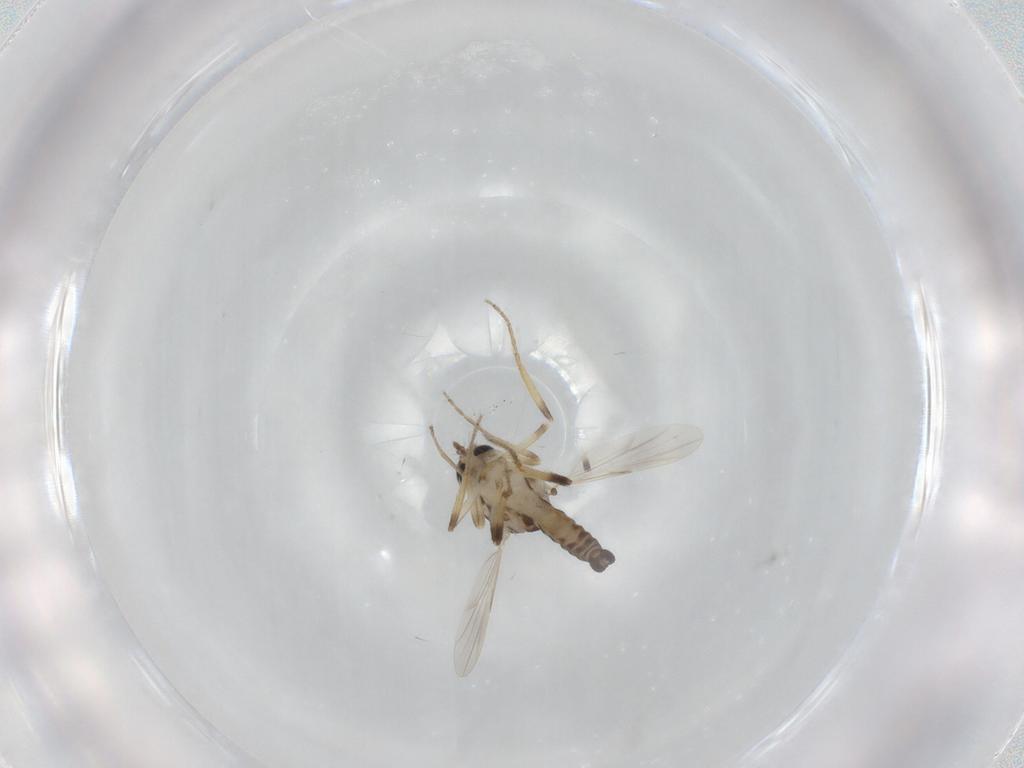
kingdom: Animalia
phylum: Arthropoda
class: Insecta
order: Diptera
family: Ceratopogonidae
